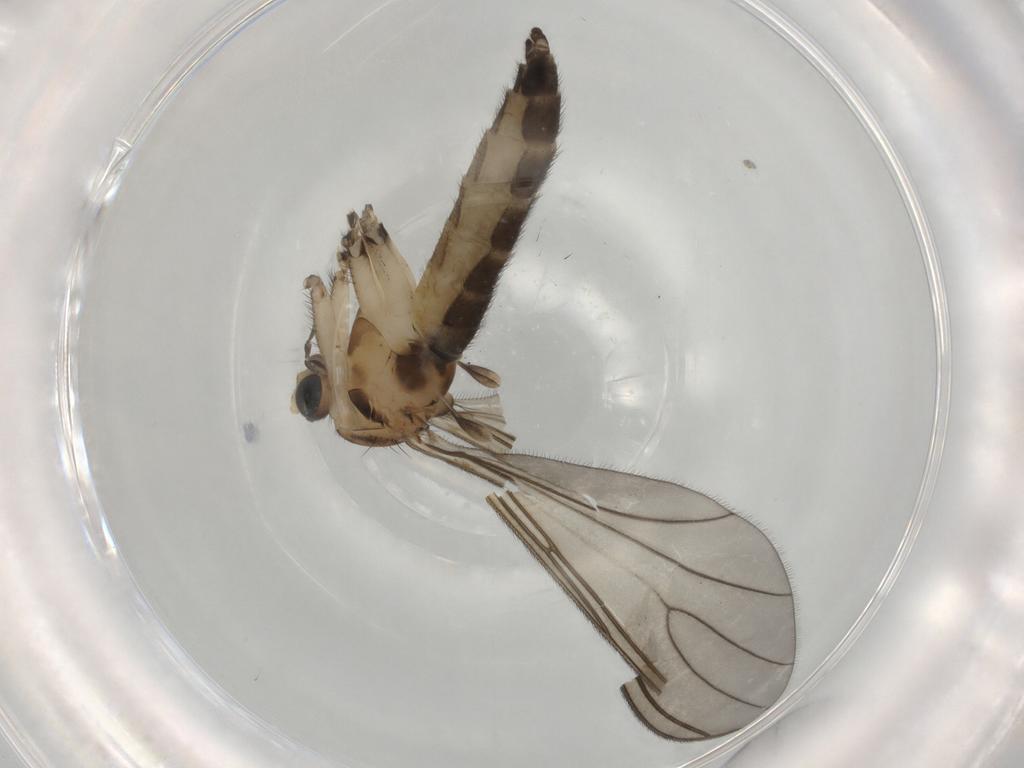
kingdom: Animalia
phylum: Arthropoda
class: Insecta
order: Diptera
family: Sciaridae
